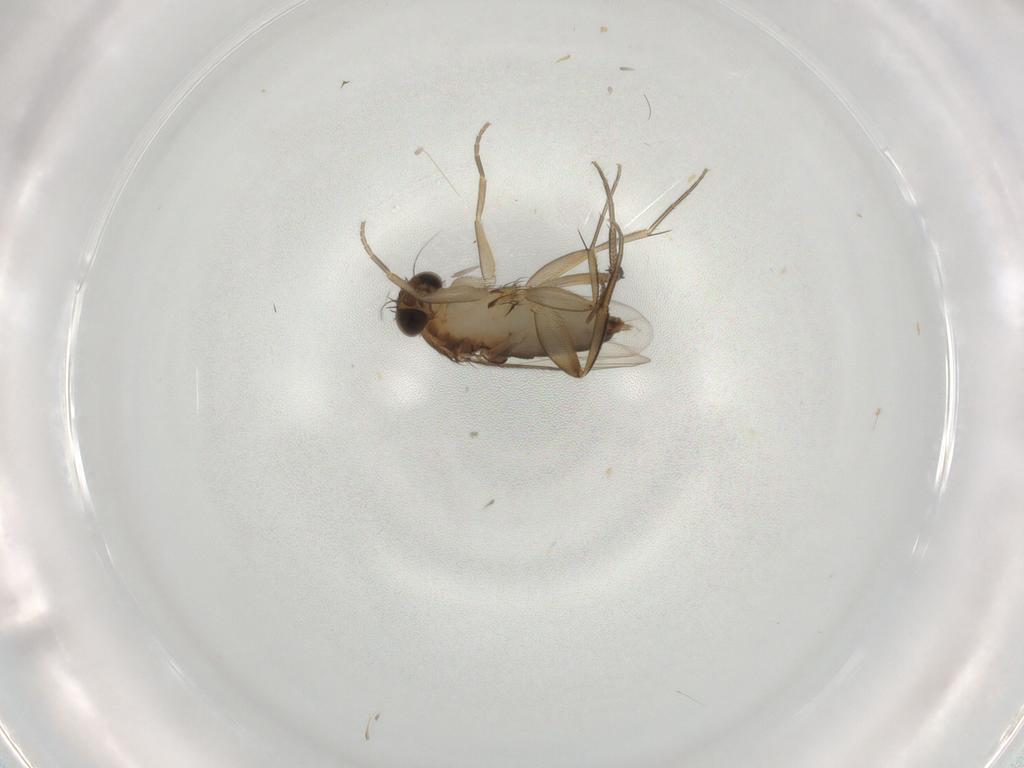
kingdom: Animalia
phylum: Arthropoda
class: Insecta
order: Diptera
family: Phoridae
